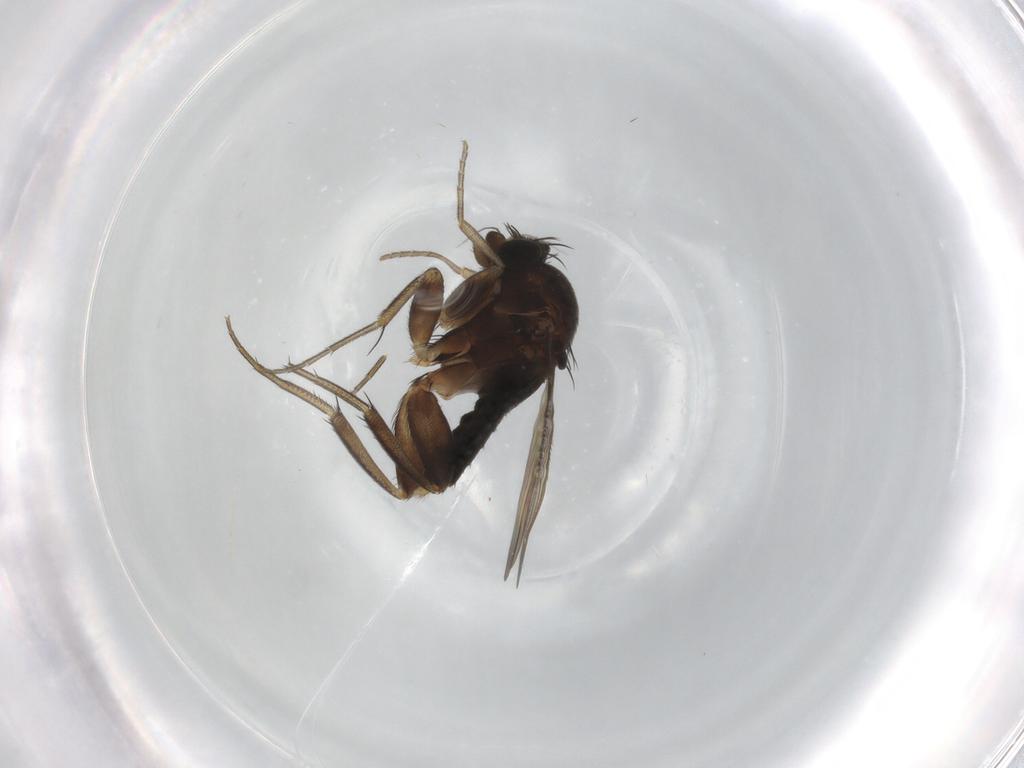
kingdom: Animalia
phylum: Arthropoda
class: Insecta
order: Diptera
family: Phoridae
